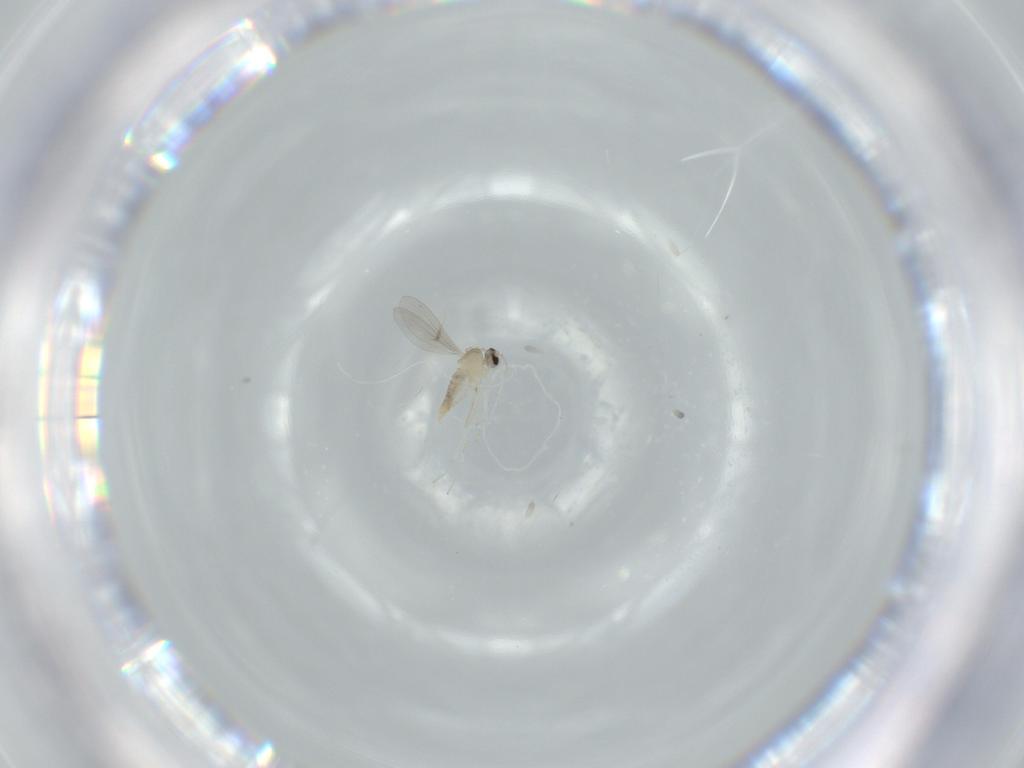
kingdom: Animalia
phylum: Arthropoda
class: Insecta
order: Diptera
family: Cecidomyiidae
